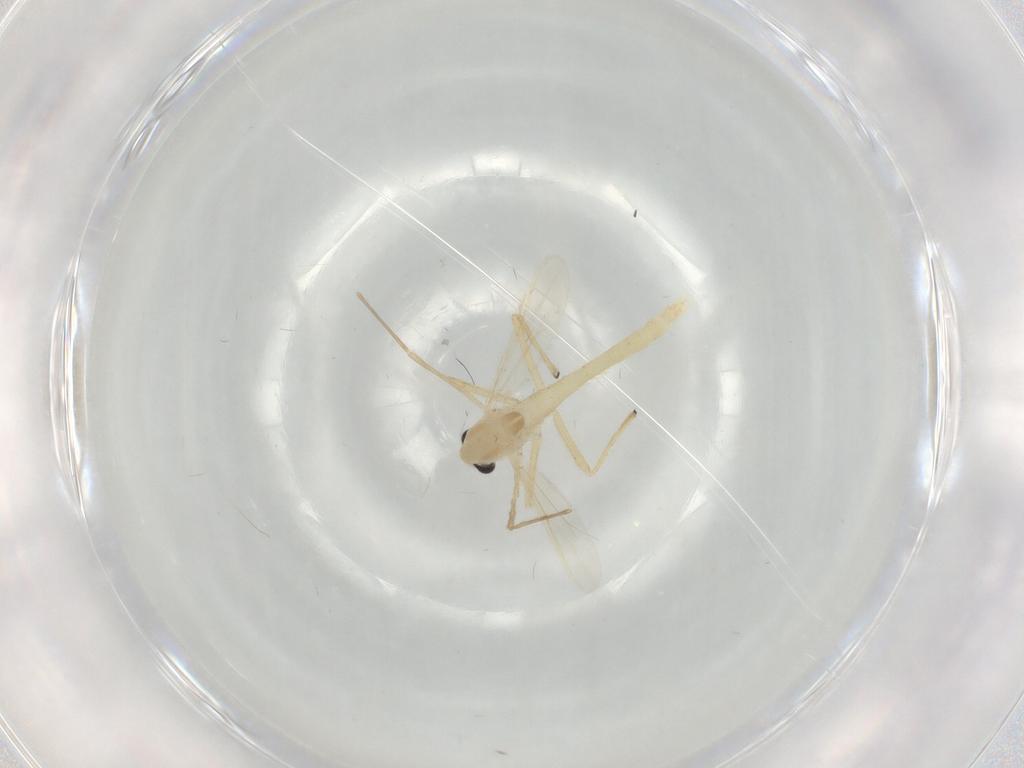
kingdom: Animalia
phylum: Arthropoda
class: Insecta
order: Diptera
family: Chironomidae
